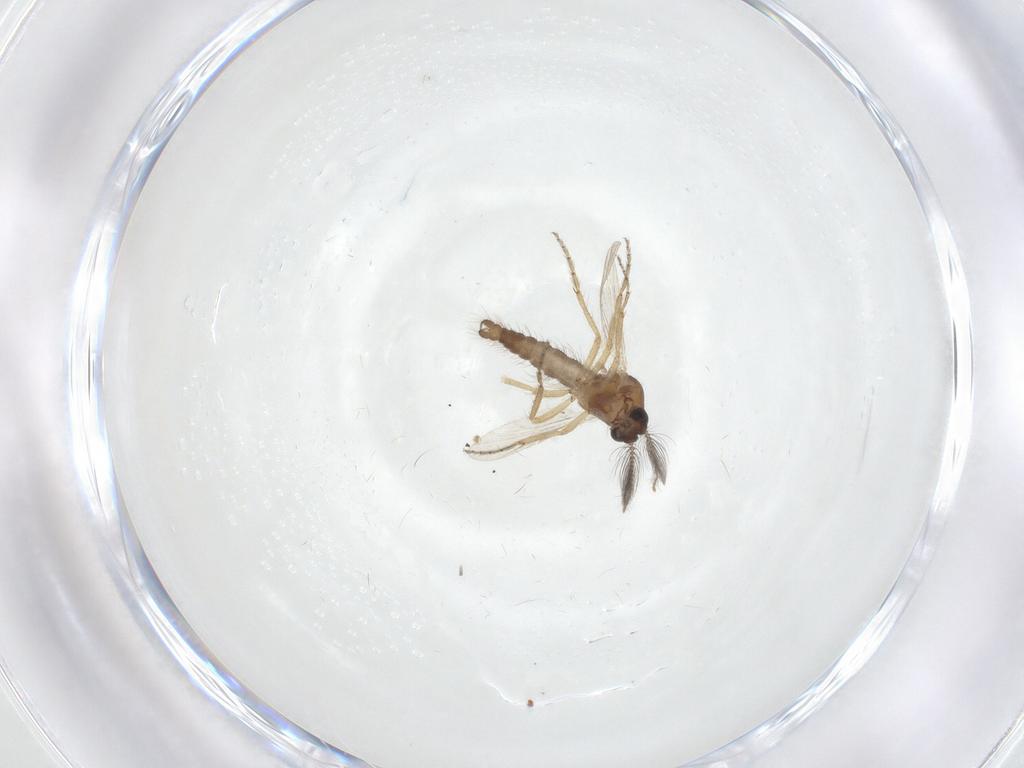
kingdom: Animalia
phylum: Arthropoda
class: Insecta
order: Diptera
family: Ceratopogonidae
